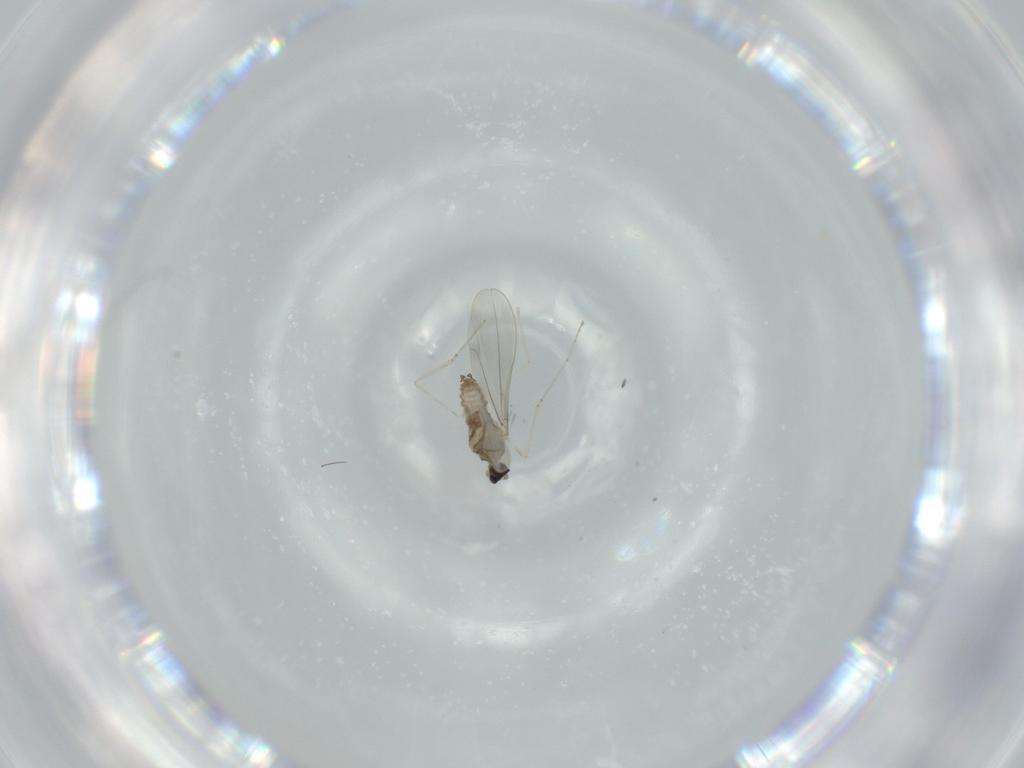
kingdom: Animalia
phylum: Arthropoda
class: Insecta
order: Diptera
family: Cecidomyiidae
